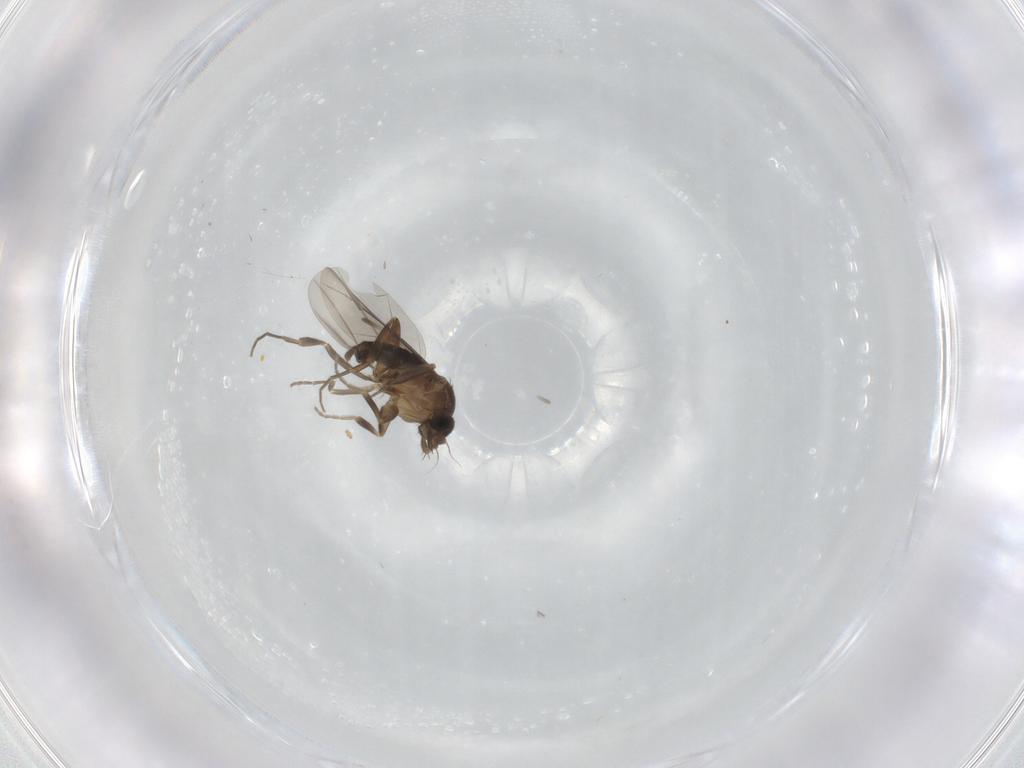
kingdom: Animalia
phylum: Arthropoda
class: Insecta
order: Diptera
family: Phoridae
